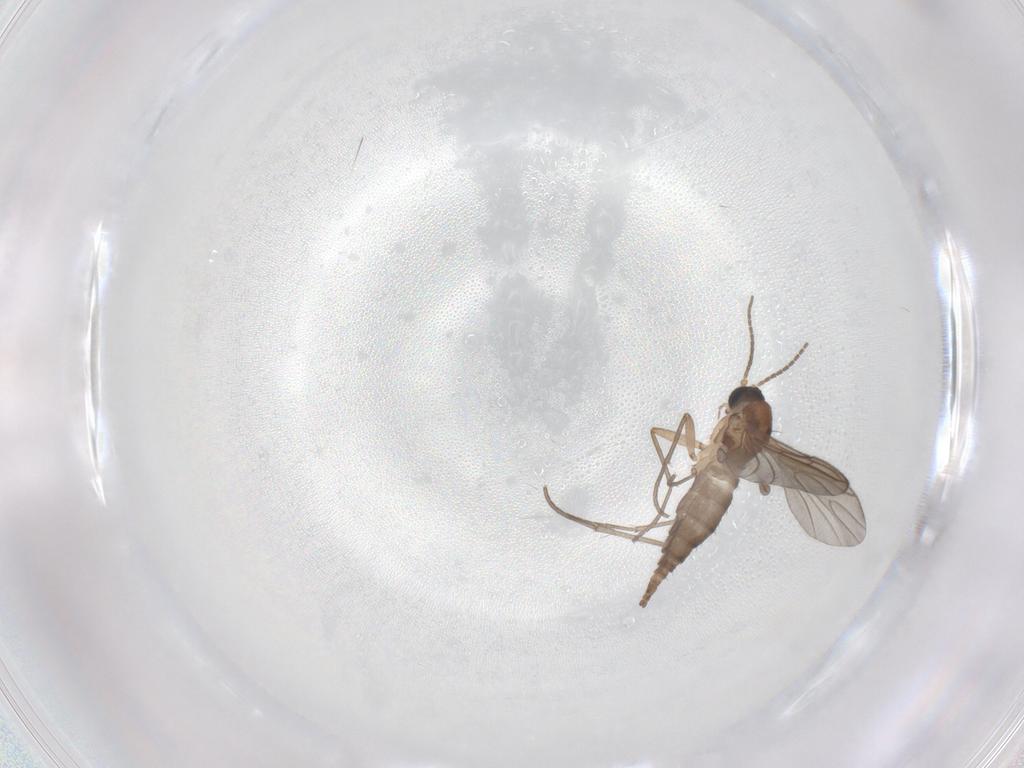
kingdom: Animalia
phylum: Arthropoda
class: Insecta
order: Diptera
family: Sciaridae
